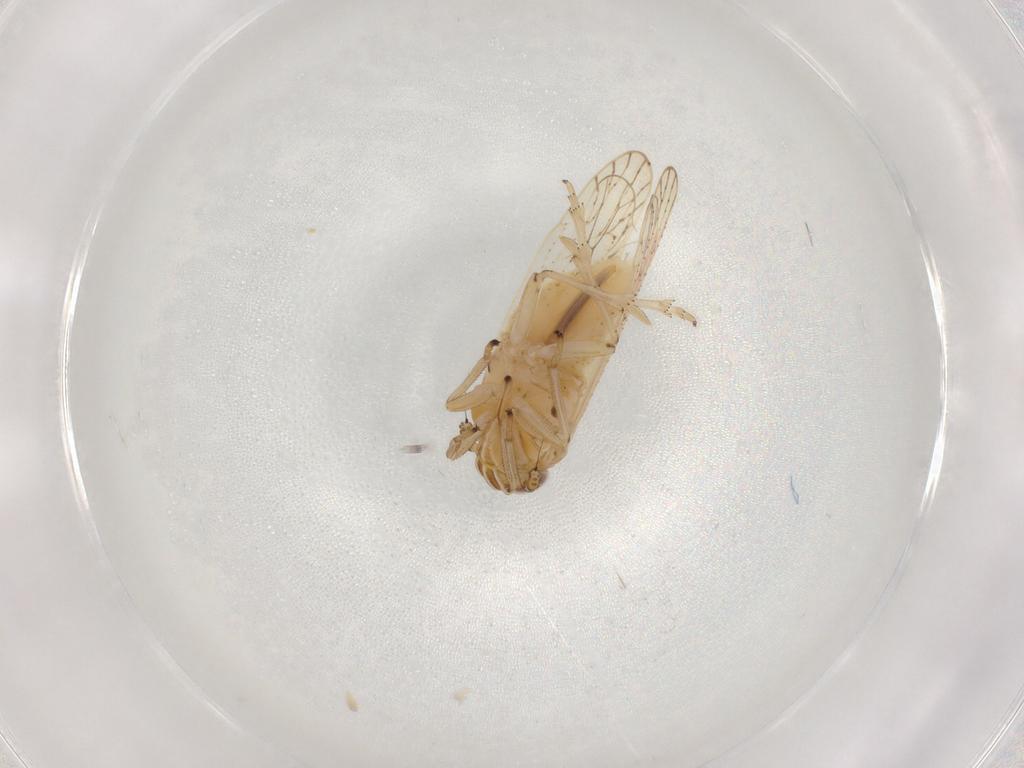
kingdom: Animalia
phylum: Arthropoda
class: Insecta
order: Hemiptera
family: Delphacidae
